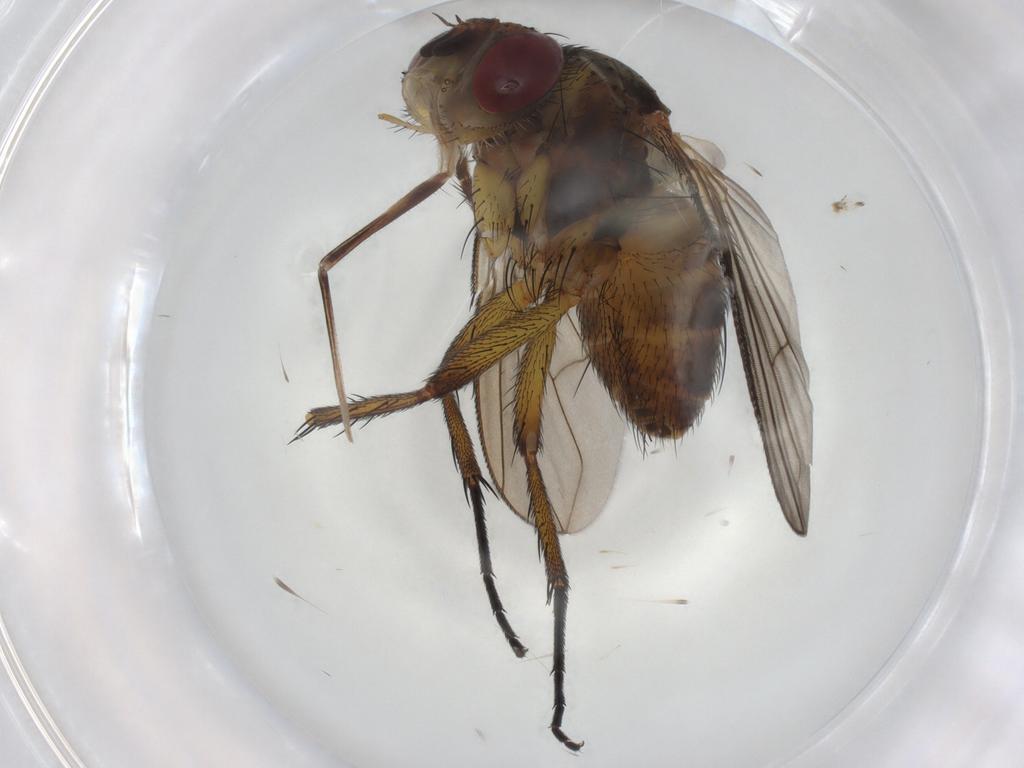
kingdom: Animalia
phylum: Arthropoda
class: Insecta
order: Diptera
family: Tachinidae
